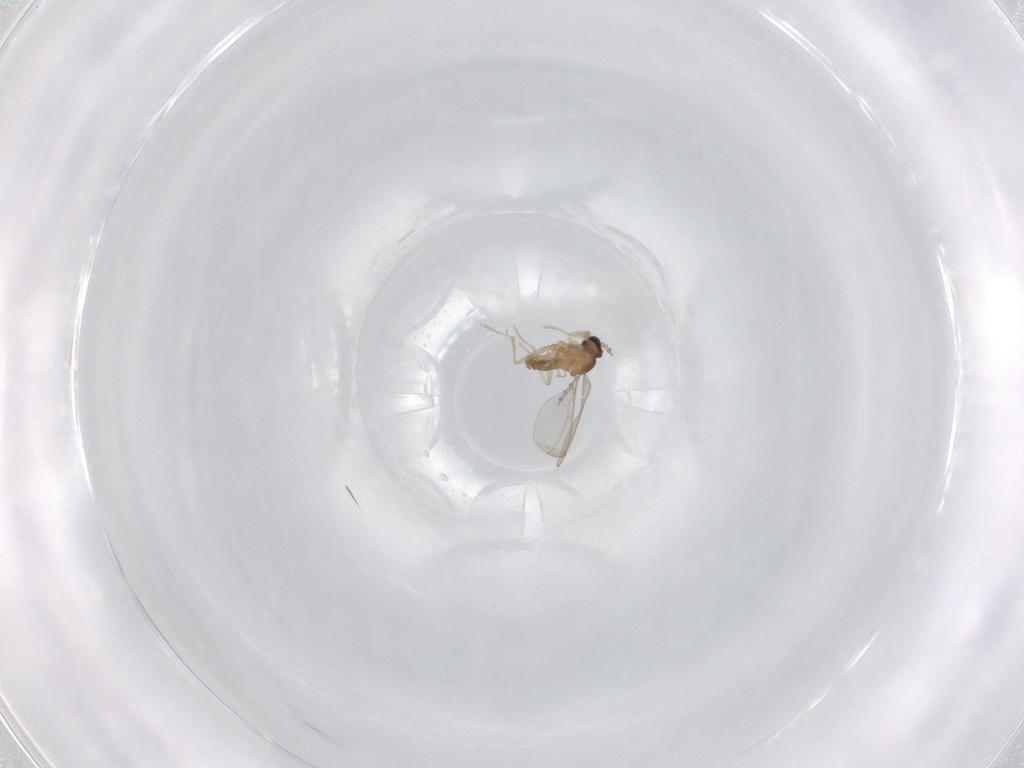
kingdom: Animalia
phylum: Arthropoda
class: Insecta
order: Diptera
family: Cecidomyiidae
